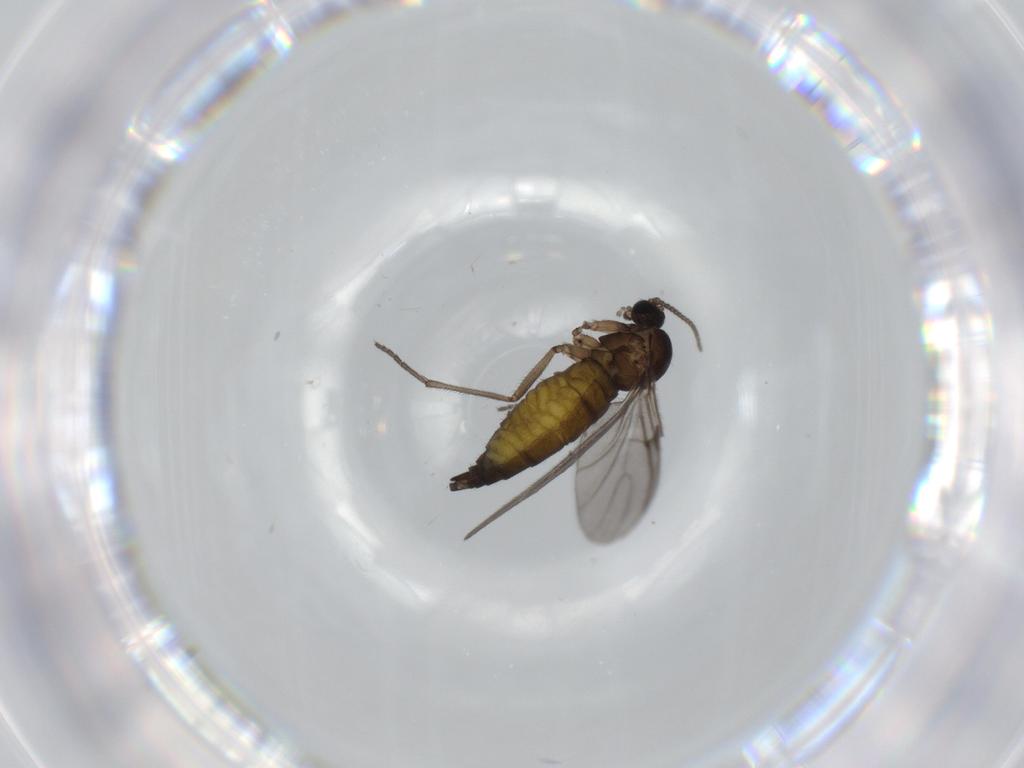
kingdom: Animalia
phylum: Arthropoda
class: Insecta
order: Diptera
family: Sciaridae
